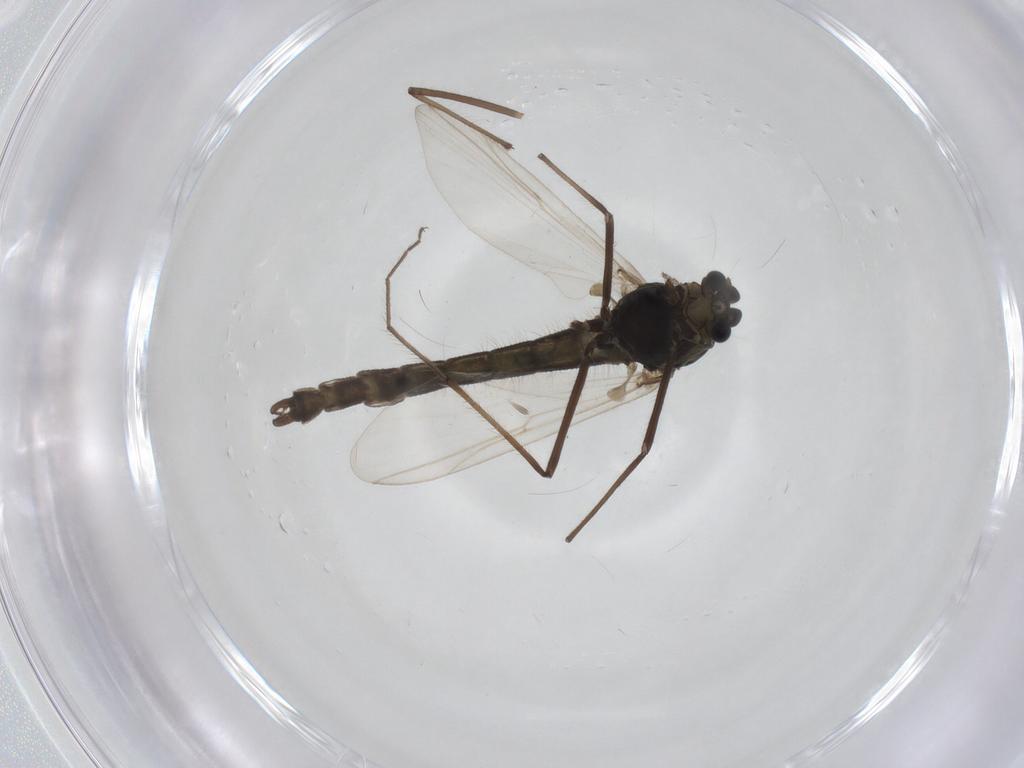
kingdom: Animalia
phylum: Arthropoda
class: Insecta
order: Diptera
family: Chironomidae
